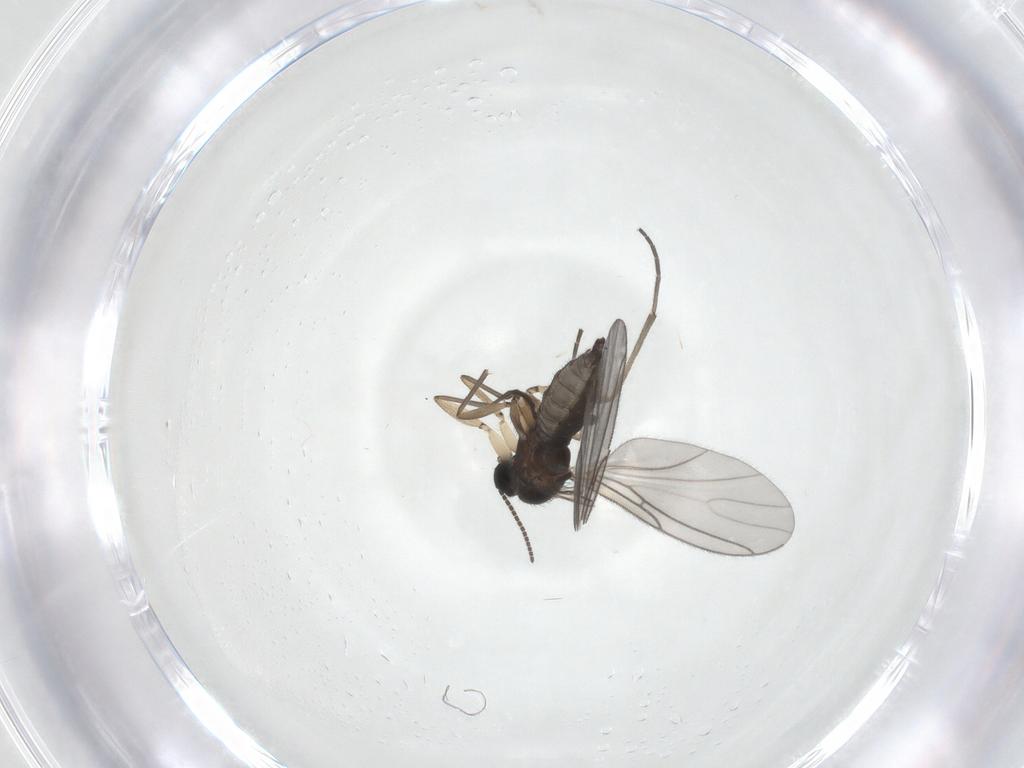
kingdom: Animalia
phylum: Arthropoda
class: Insecta
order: Diptera
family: Sciaridae
